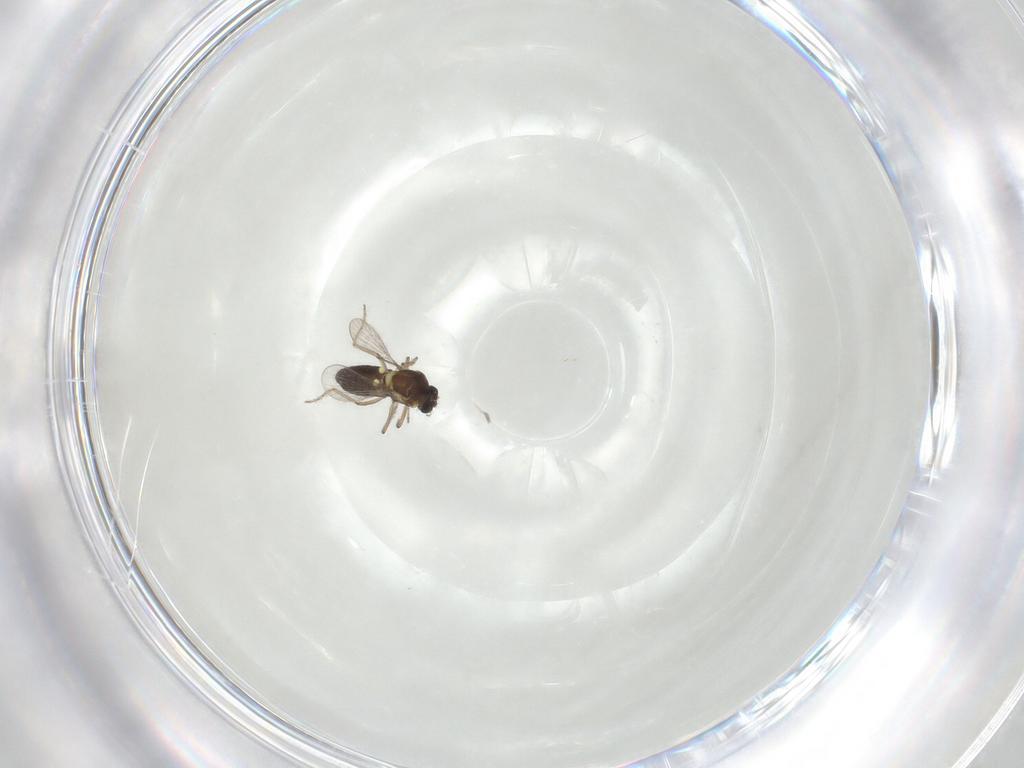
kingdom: Animalia
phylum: Arthropoda
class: Insecta
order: Diptera
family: Ceratopogonidae
